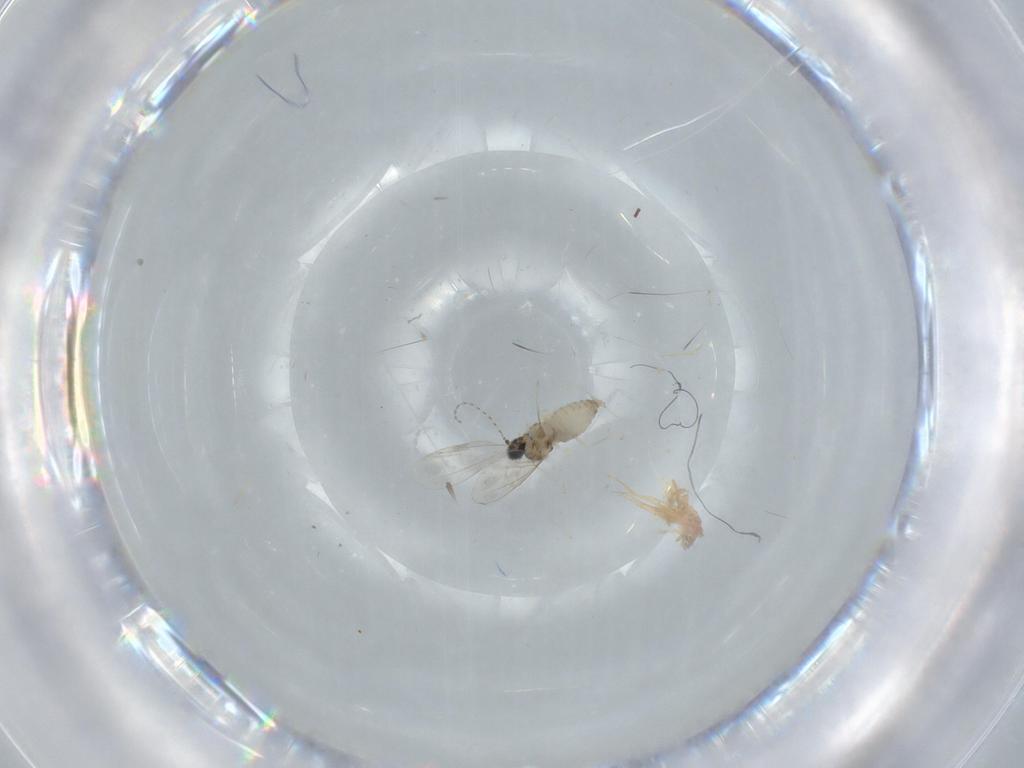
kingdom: Animalia
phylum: Arthropoda
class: Insecta
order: Diptera
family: Cecidomyiidae
